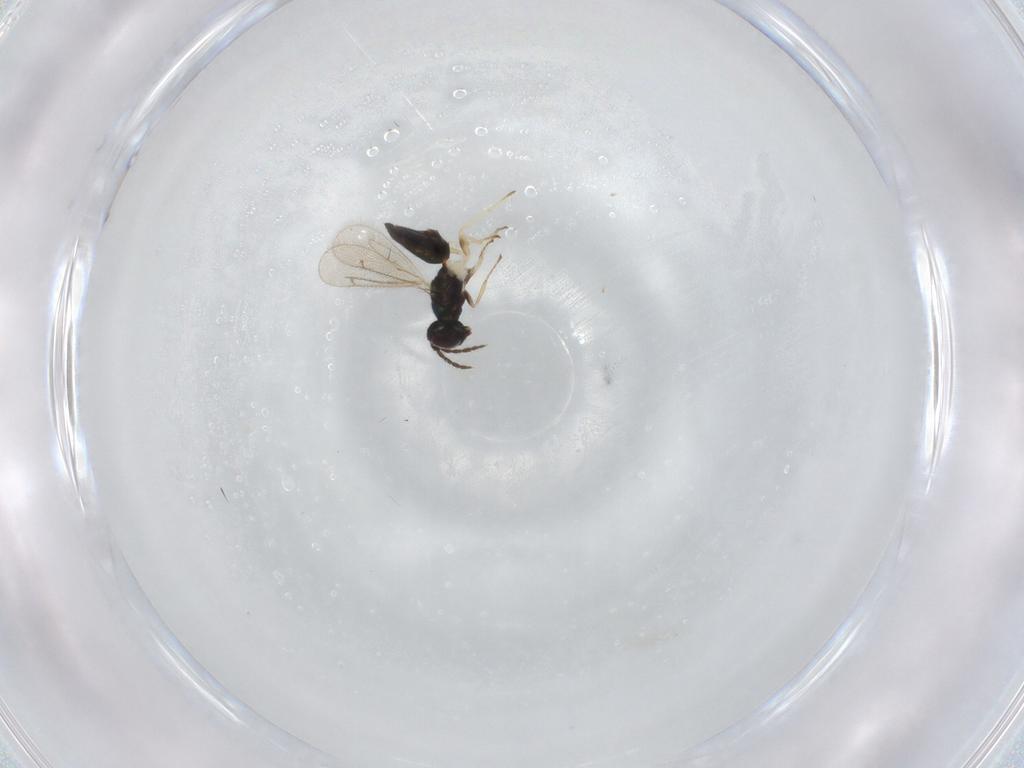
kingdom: Animalia
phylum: Arthropoda
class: Insecta
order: Hymenoptera
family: Eulophidae
